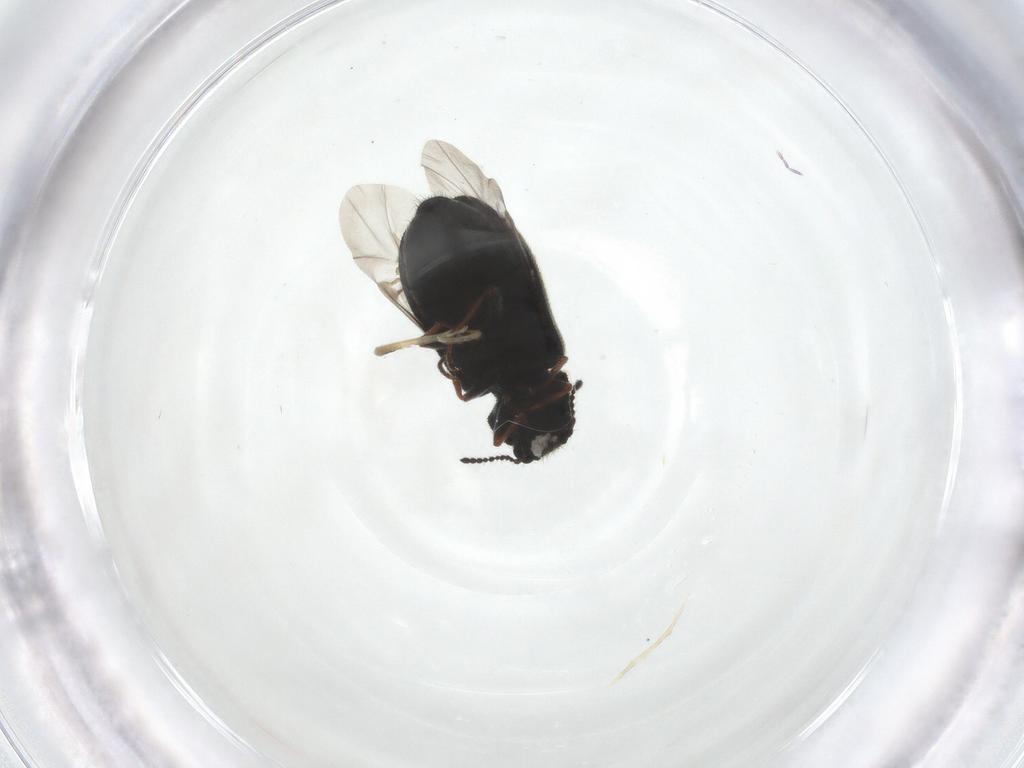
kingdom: Animalia
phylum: Arthropoda
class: Insecta
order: Coleoptera
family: Melyridae
